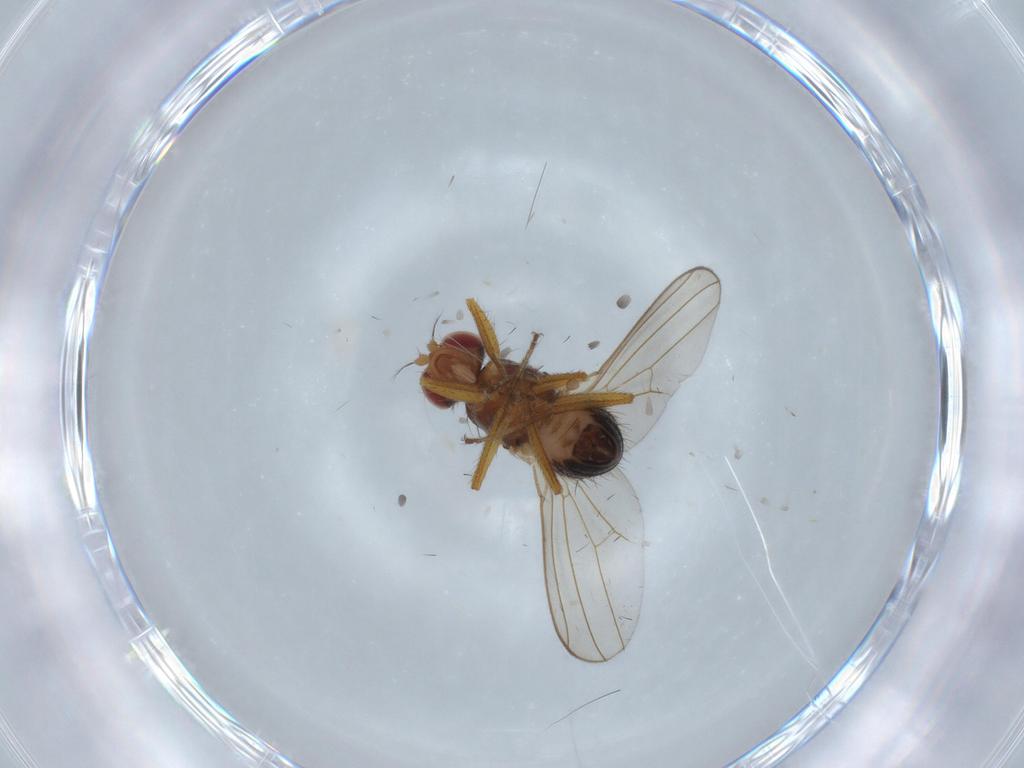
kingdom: Animalia
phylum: Arthropoda
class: Insecta
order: Diptera
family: Drosophilidae
